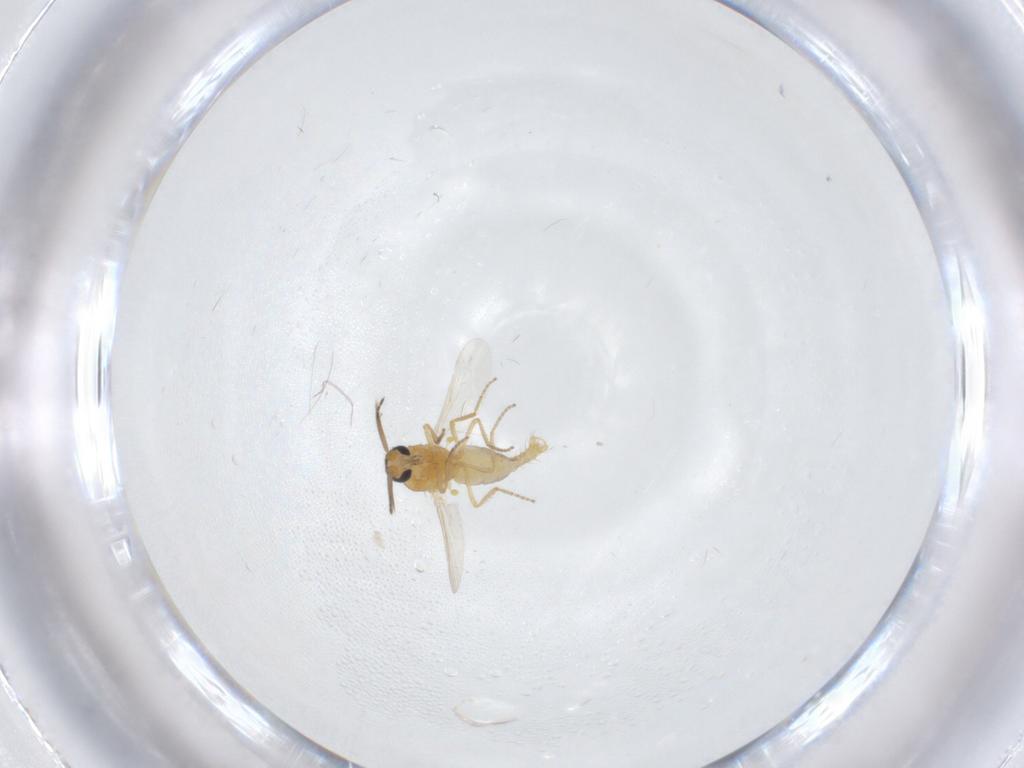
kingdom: Animalia
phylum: Arthropoda
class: Insecta
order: Diptera
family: Ceratopogonidae
